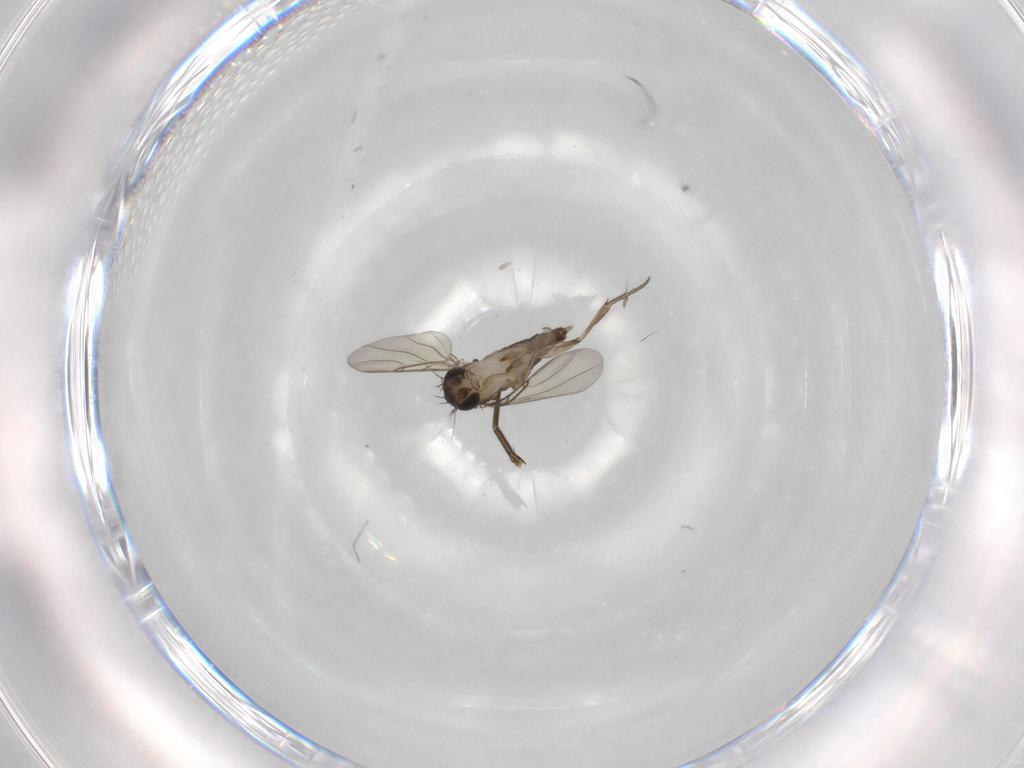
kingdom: Animalia
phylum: Arthropoda
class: Insecta
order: Diptera
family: Phoridae
